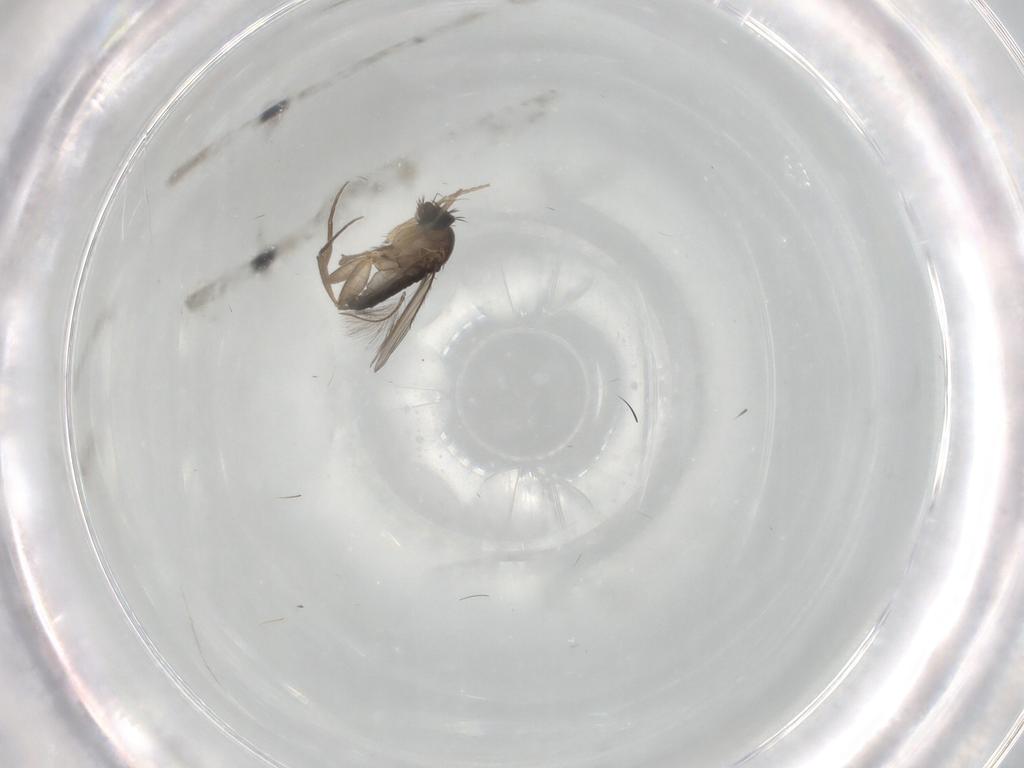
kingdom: Animalia
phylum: Arthropoda
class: Insecta
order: Diptera
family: Phoridae
